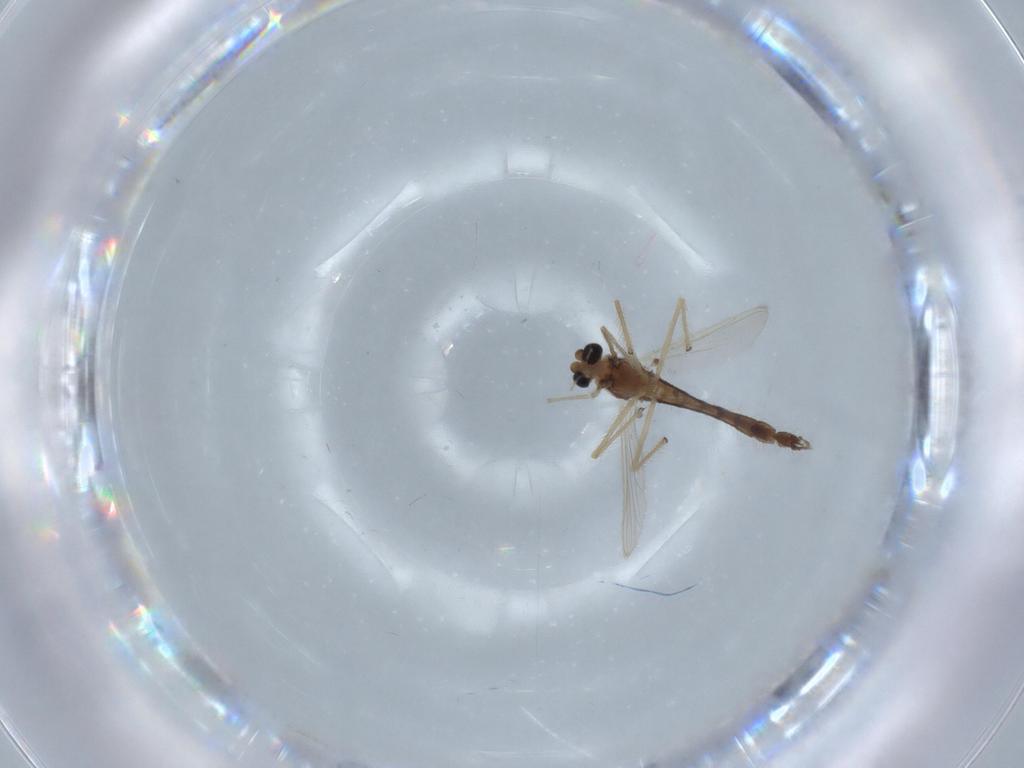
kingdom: Animalia
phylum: Arthropoda
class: Insecta
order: Diptera
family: Chironomidae
